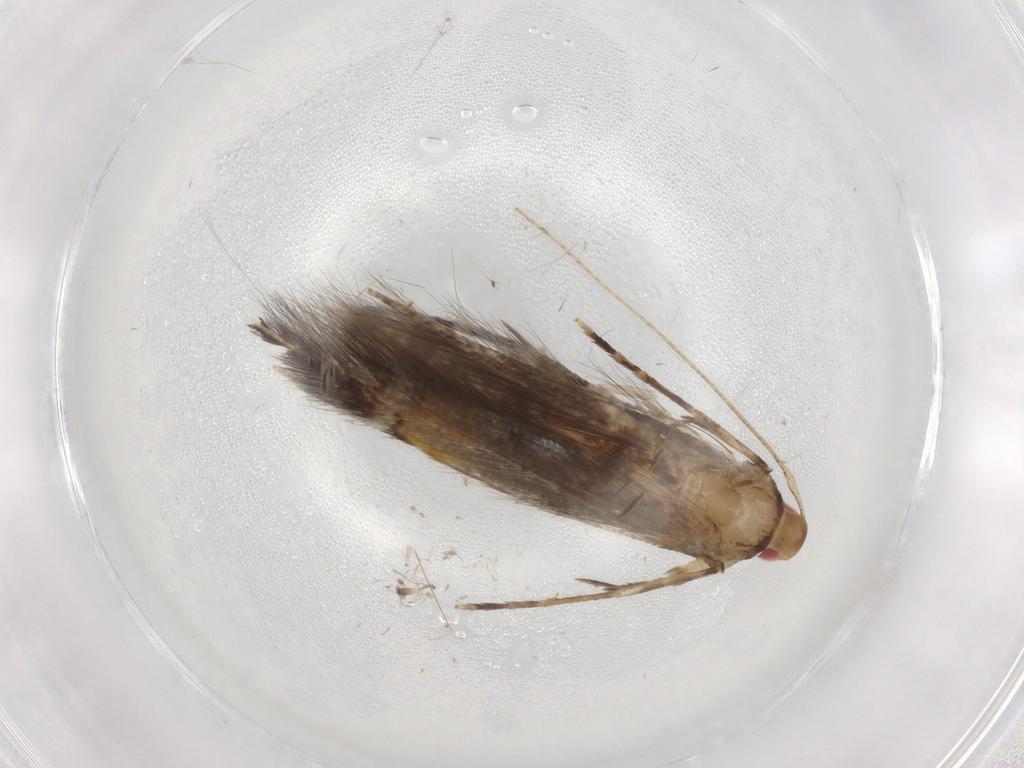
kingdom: Animalia
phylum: Arthropoda
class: Insecta
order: Lepidoptera
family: Cosmopterigidae
